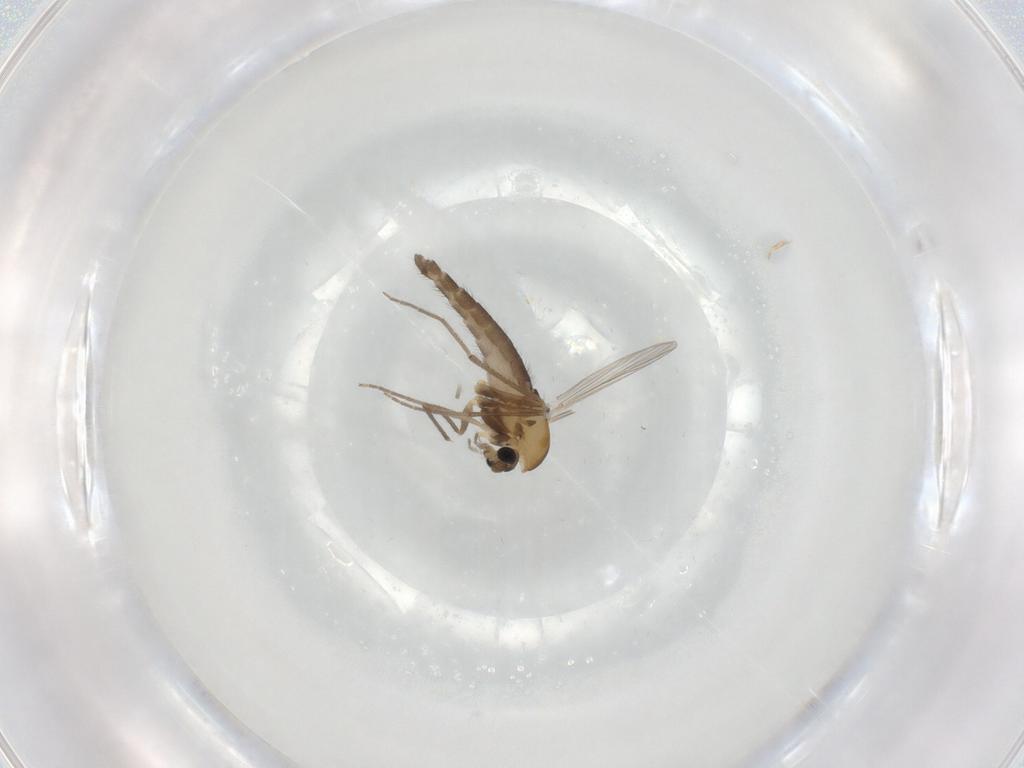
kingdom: Animalia
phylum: Arthropoda
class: Insecta
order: Diptera
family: Chironomidae
